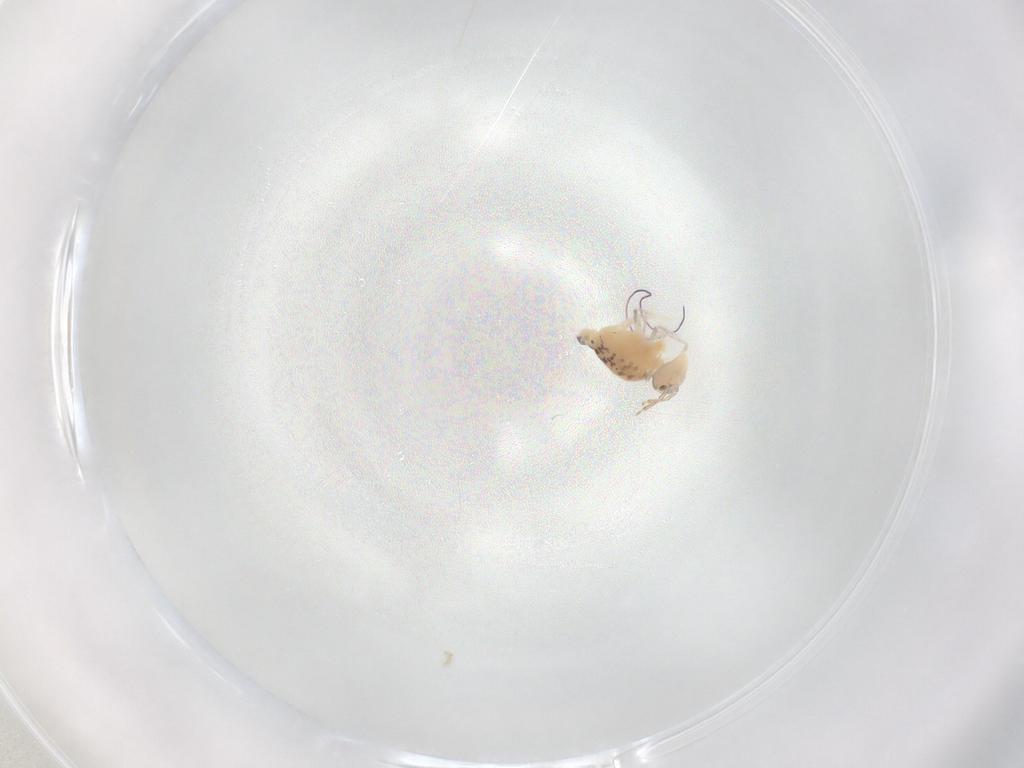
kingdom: Animalia
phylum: Arthropoda
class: Collembola
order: Symphypleona
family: Bourletiellidae
